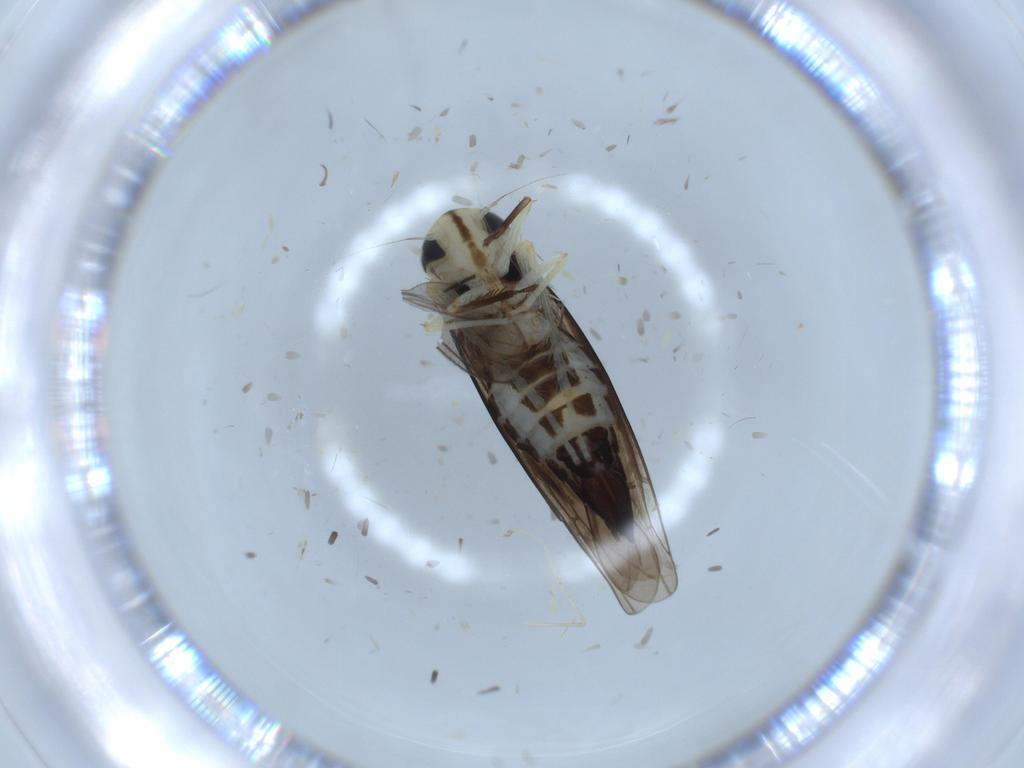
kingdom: Animalia
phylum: Arthropoda
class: Insecta
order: Hemiptera
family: Cicadellidae
